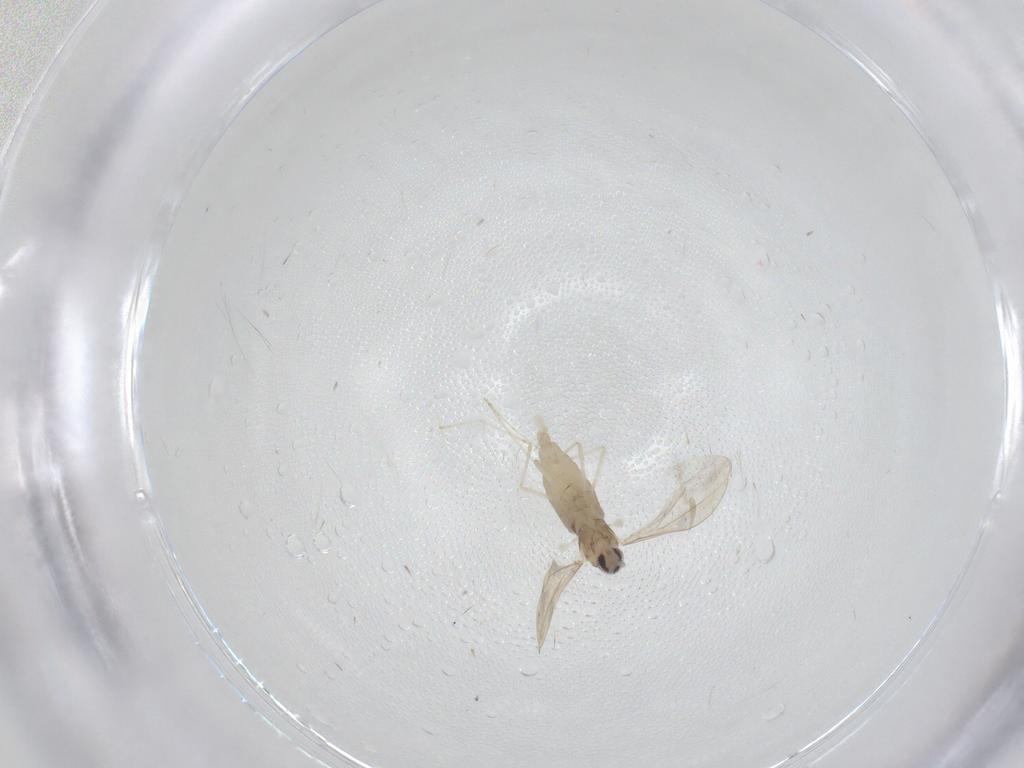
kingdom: Animalia
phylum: Arthropoda
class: Insecta
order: Diptera
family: Cecidomyiidae
